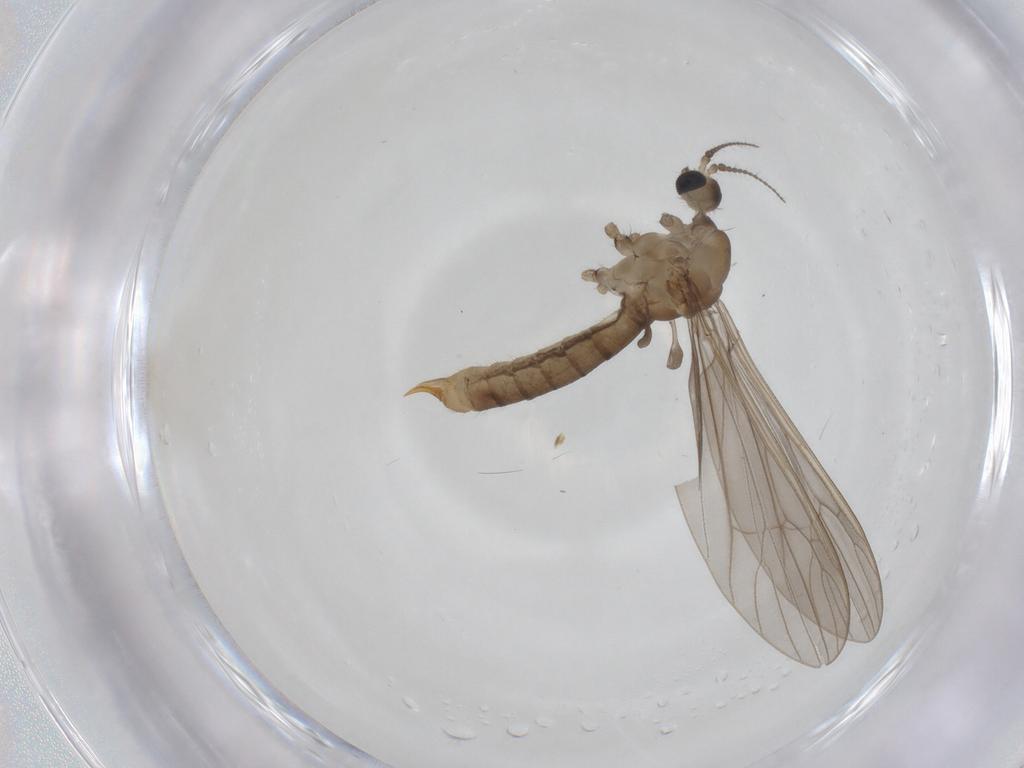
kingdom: Animalia
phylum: Arthropoda
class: Insecta
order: Diptera
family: Limoniidae
